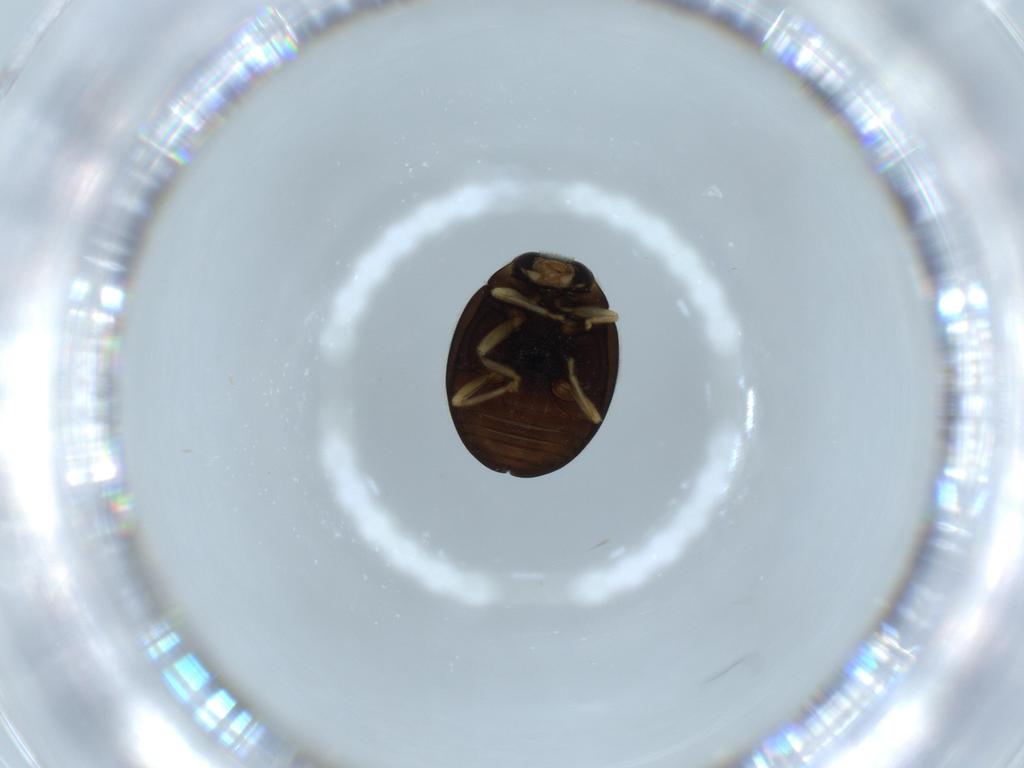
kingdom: Animalia
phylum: Arthropoda
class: Insecta
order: Coleoptera
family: Coccinellidae
